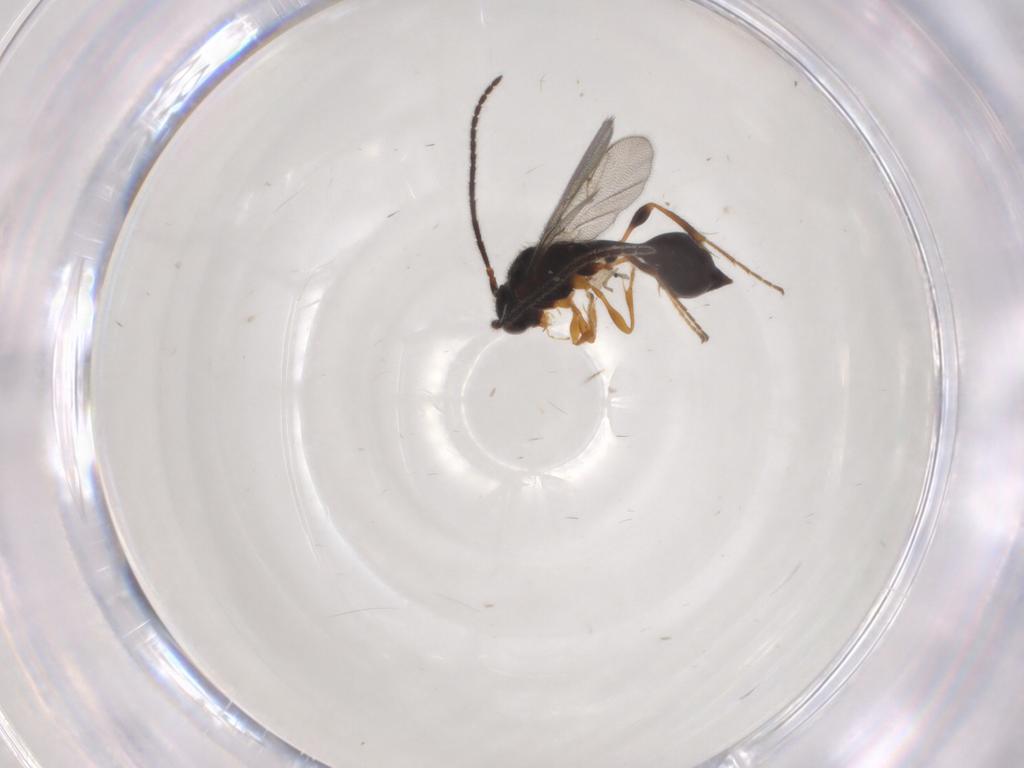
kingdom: Animalia
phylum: Arthropoda
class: Insecta
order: Hymenoptera
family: Diapriidae
